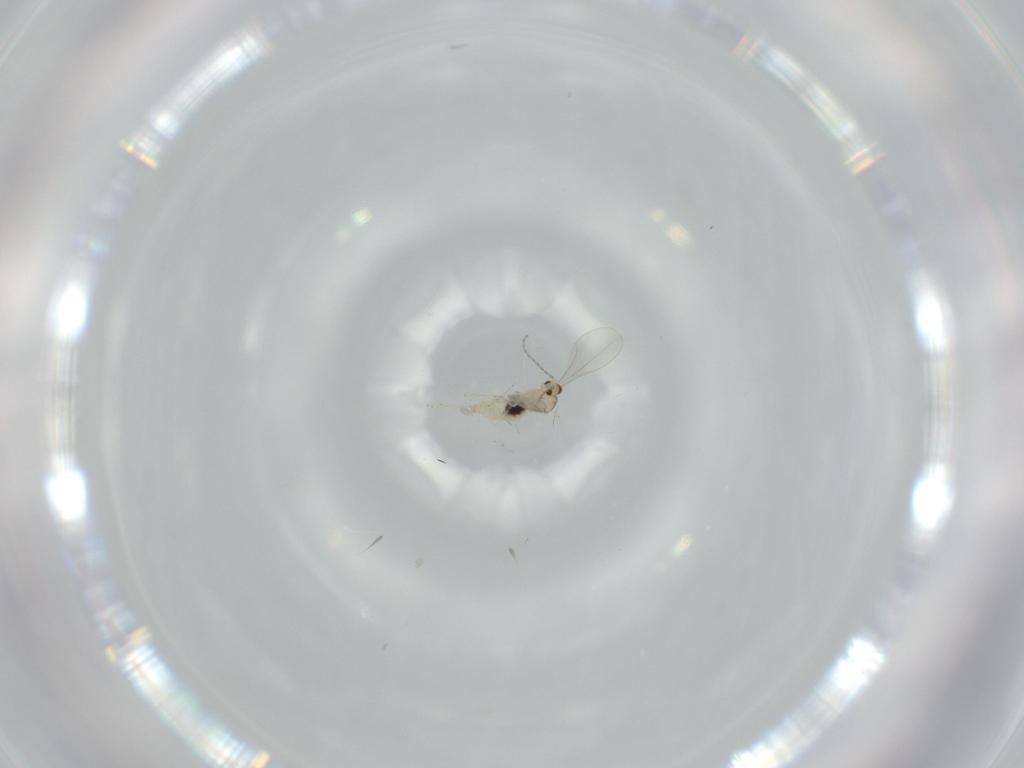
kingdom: Animalia
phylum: Arthropoda
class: Insecta
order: Diptera
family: Cecidomyiidae
